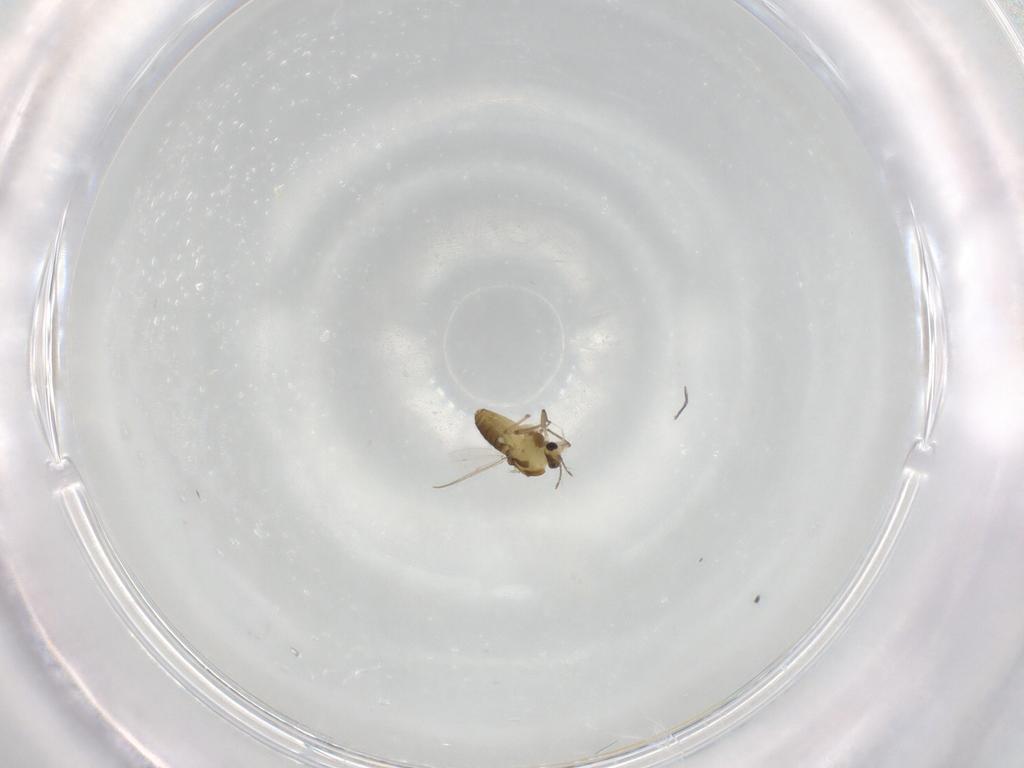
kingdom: Animalia
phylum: Arthropoda
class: Insecta
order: Diptera
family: Chironomidae
